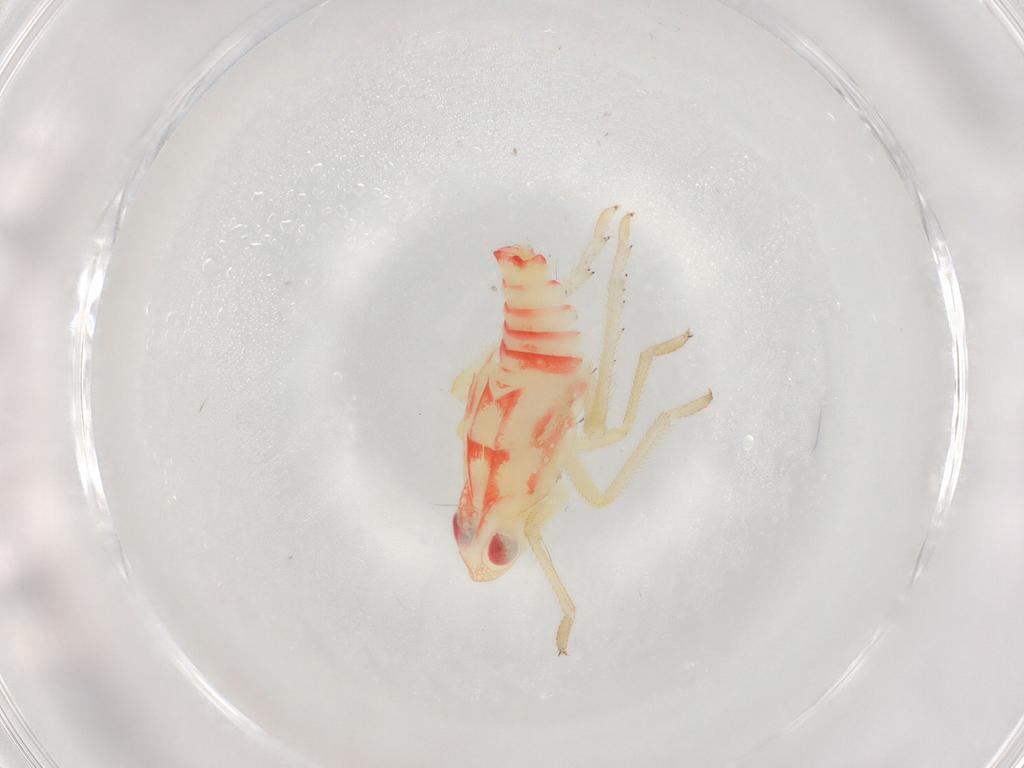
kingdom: Animalia
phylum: Arthropoda
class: Insecta
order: Hemiptera
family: Tropiduchidae
